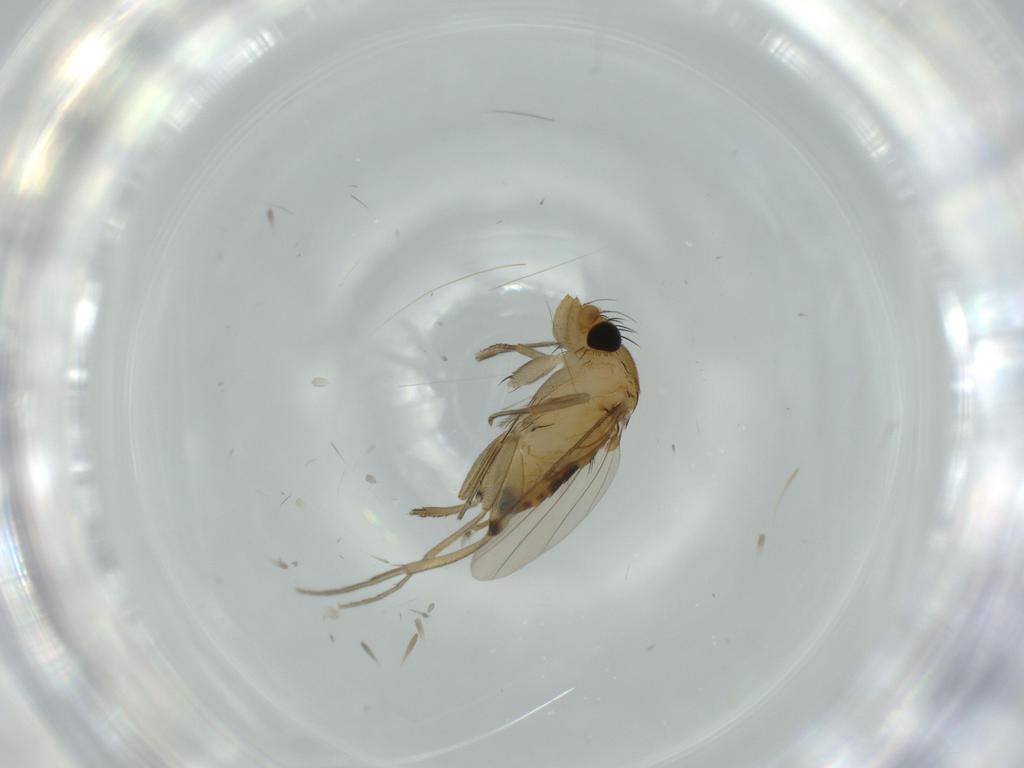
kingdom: Animalia
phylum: Arthropoda
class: Insecta
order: Diptera
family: Phoridae
